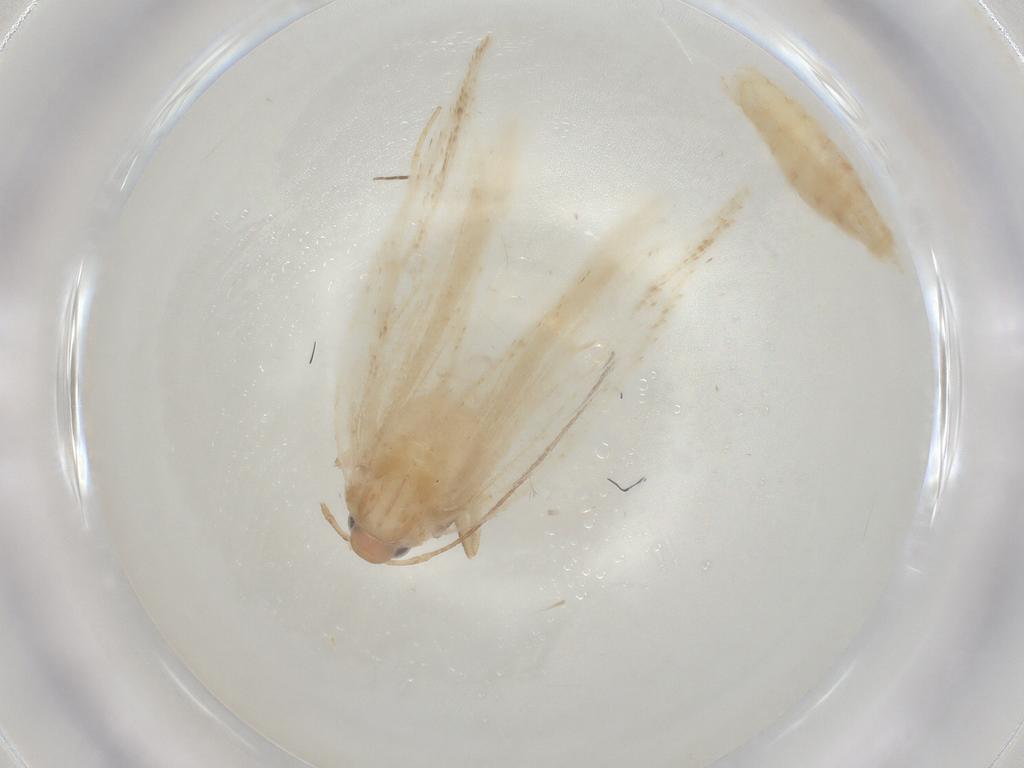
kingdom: Animalia
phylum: Arthropoda
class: Insecta
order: Lepidoptera
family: Gelechiidae
